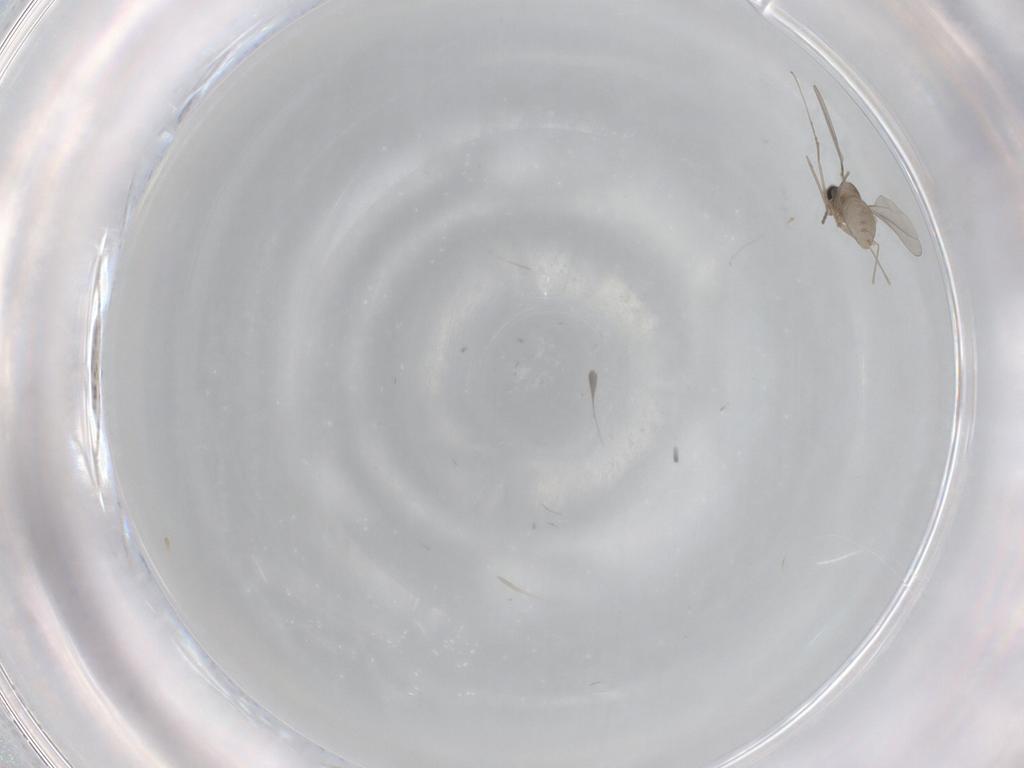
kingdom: Animalia
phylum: Arthropoda
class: Insecta
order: Diptera
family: Cecidomyiidae
